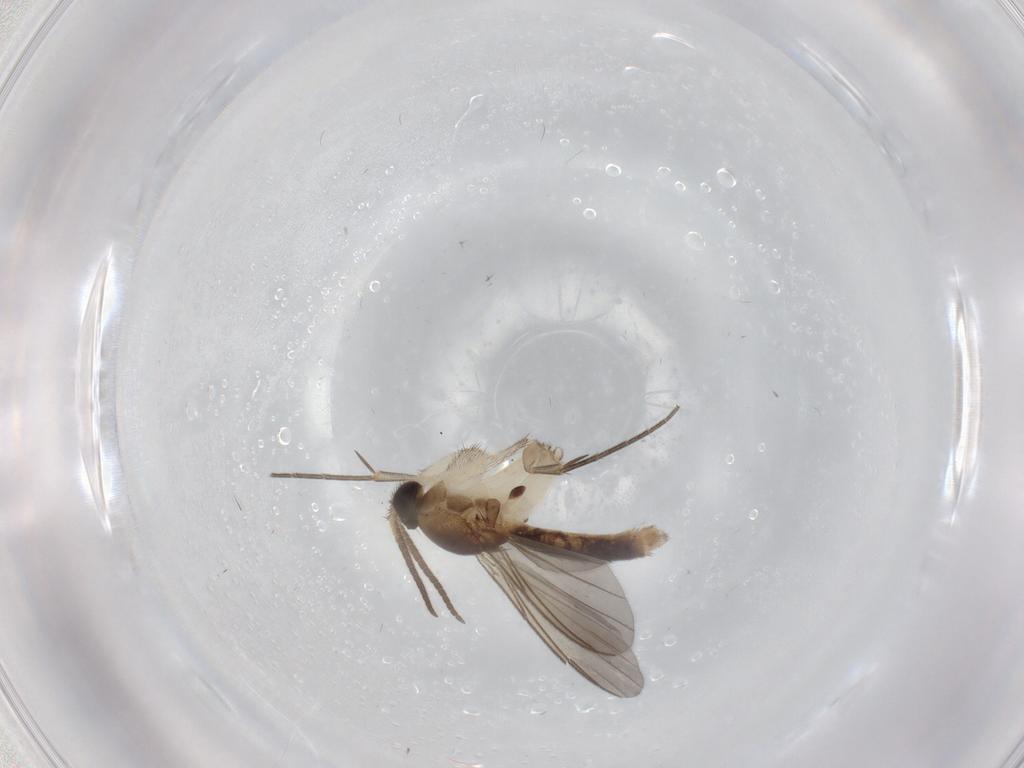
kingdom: Animalia
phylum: Arthropoda
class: Insecta
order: Diptera
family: Mycetophilidae
